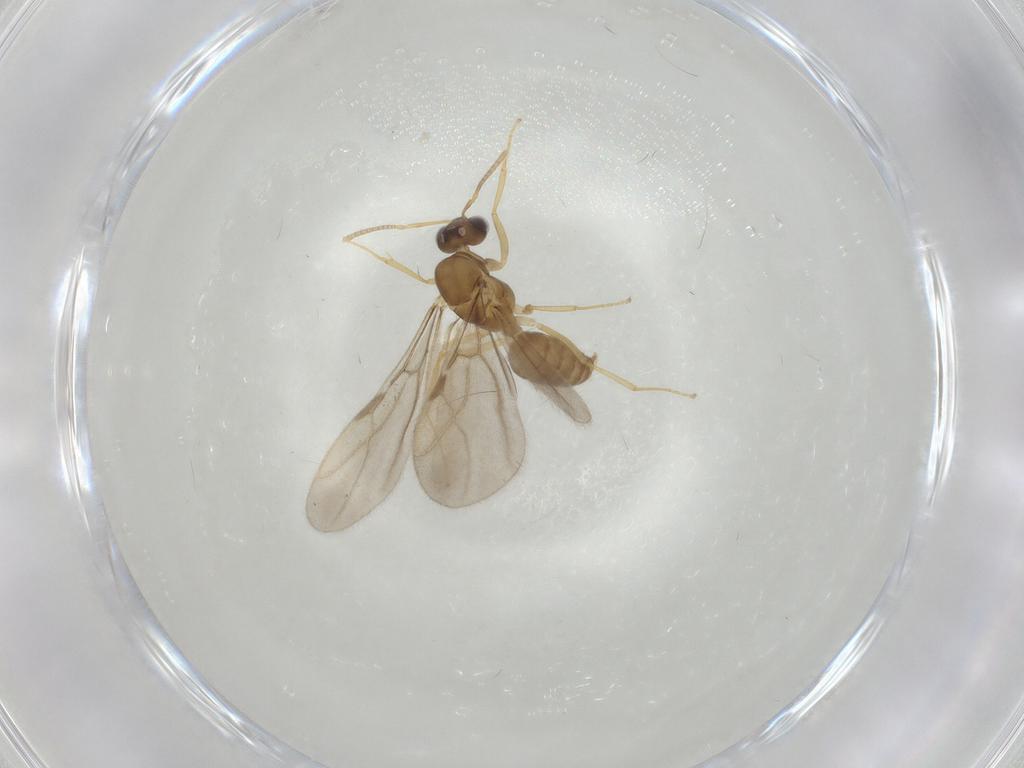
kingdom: Animalia
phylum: Arthropoda
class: Insecta
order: Hymenoptera
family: Formicidae
